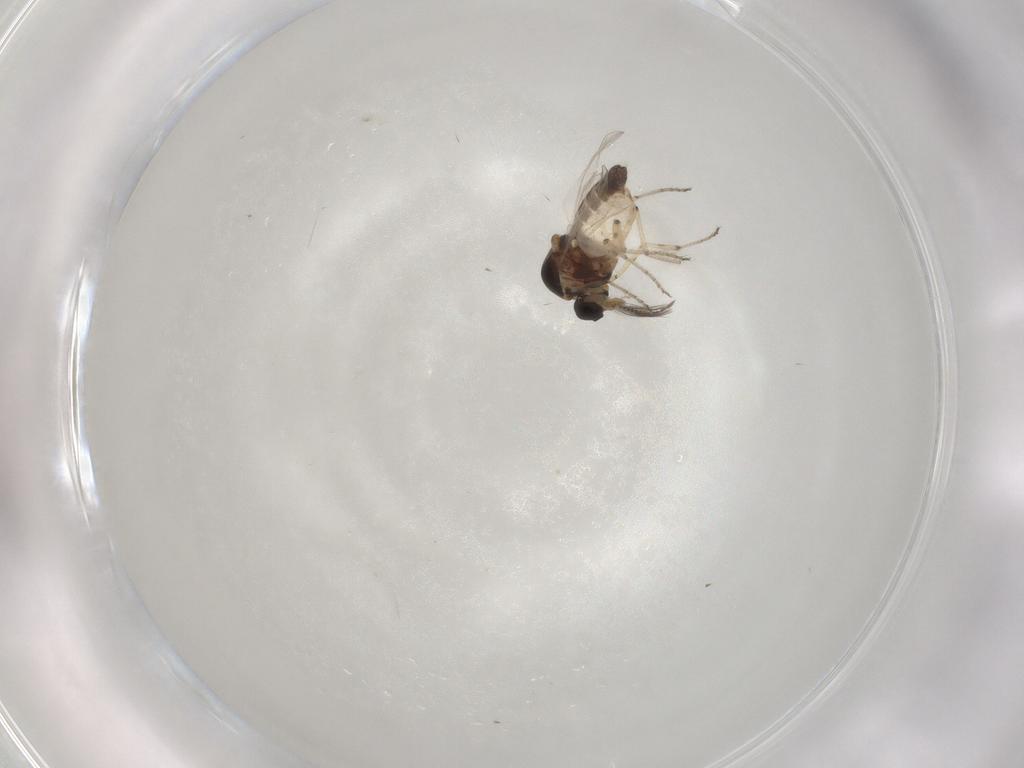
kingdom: Animalia
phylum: Arthropoda
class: Insecta
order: Diptera
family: Ceratopogonidae
